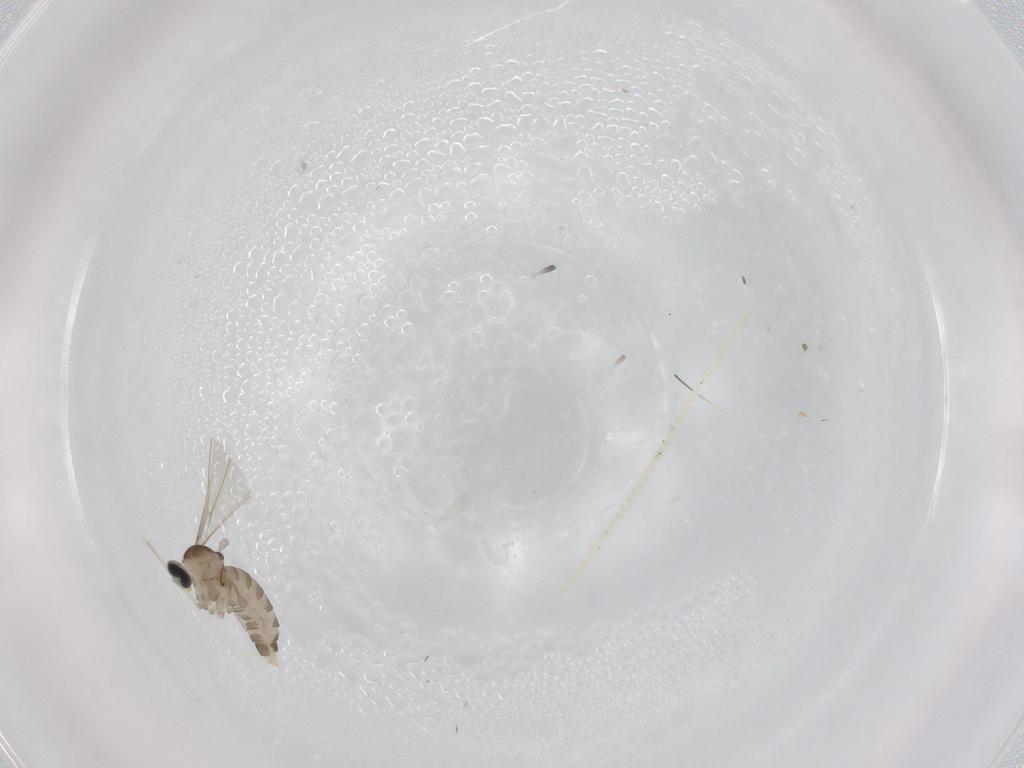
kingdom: Animalia
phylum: Arthropoda
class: Insecta
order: Diptera
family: Cecidomyiidae
